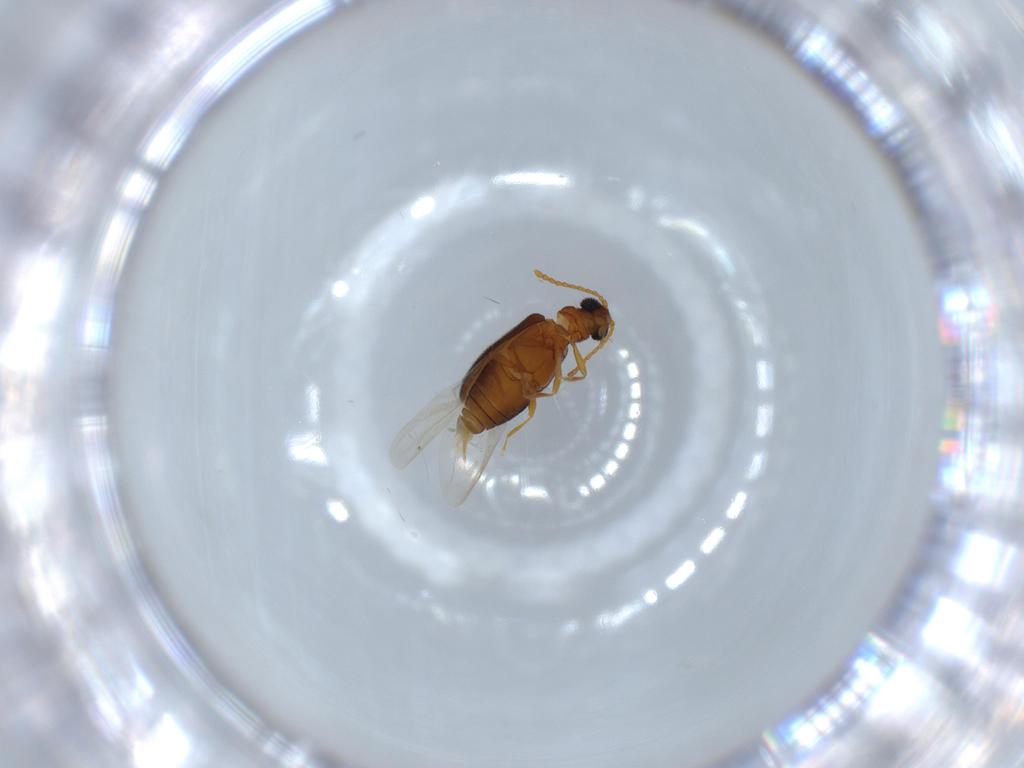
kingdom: Animalia
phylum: Arthropoda
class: Insecta
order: Coleoptera
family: Aderidae
